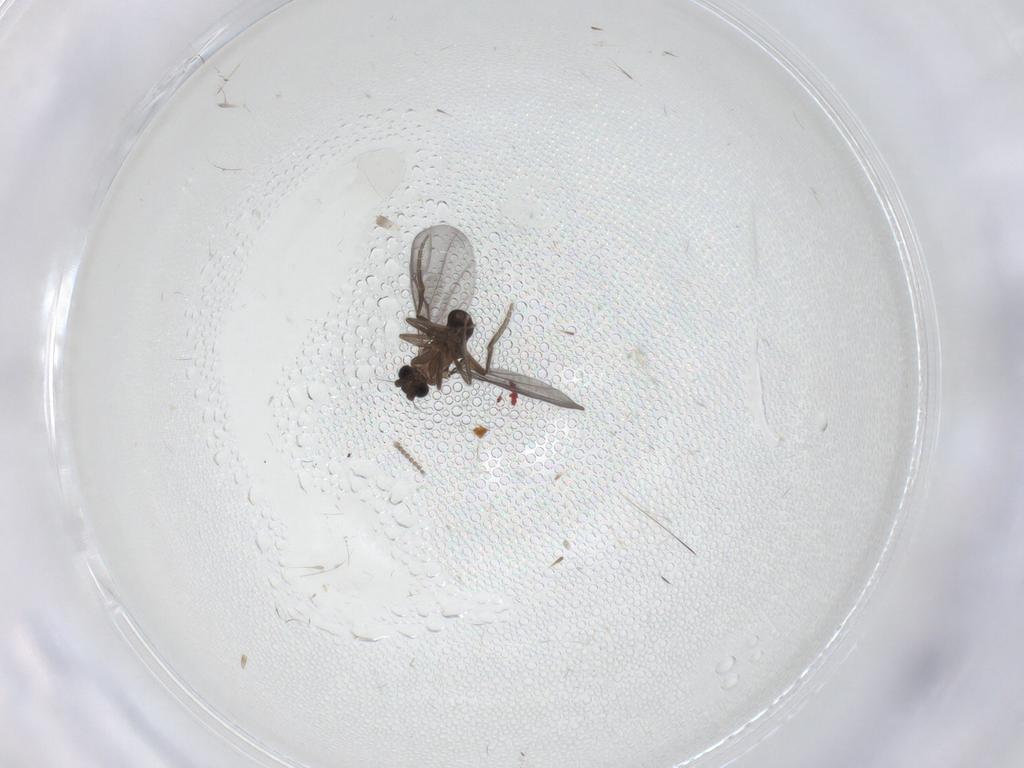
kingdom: Animalia
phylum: Arthropoda
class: Insecta
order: Diptera
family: Cecidomyiidae
